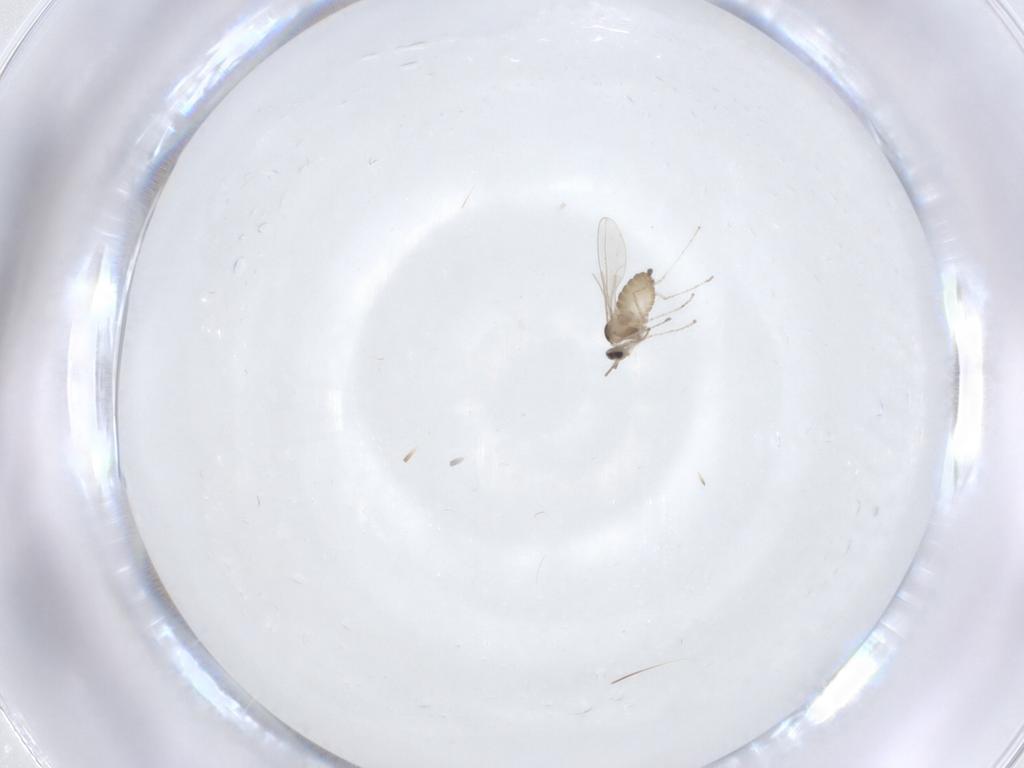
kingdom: Animalia
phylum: Arthropoda
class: Insecta
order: Diptera
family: Cecidomyiidae
